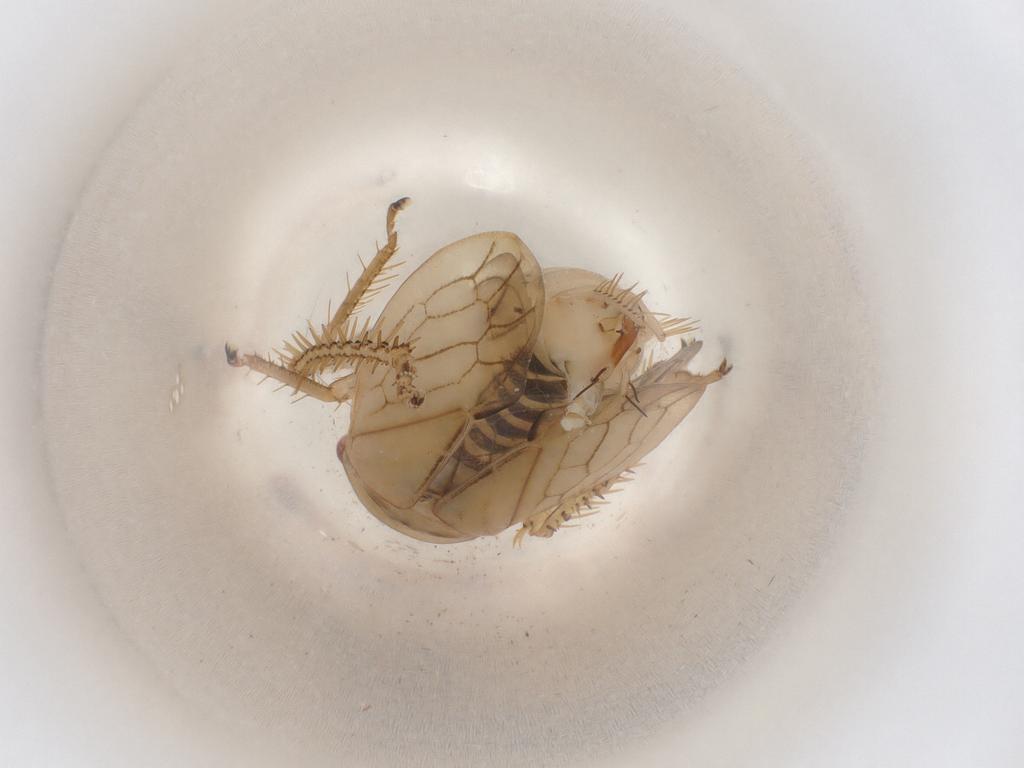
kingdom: Animalia
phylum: Arthropoda
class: Insecta
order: Hemiptera
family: Cicadellidae
